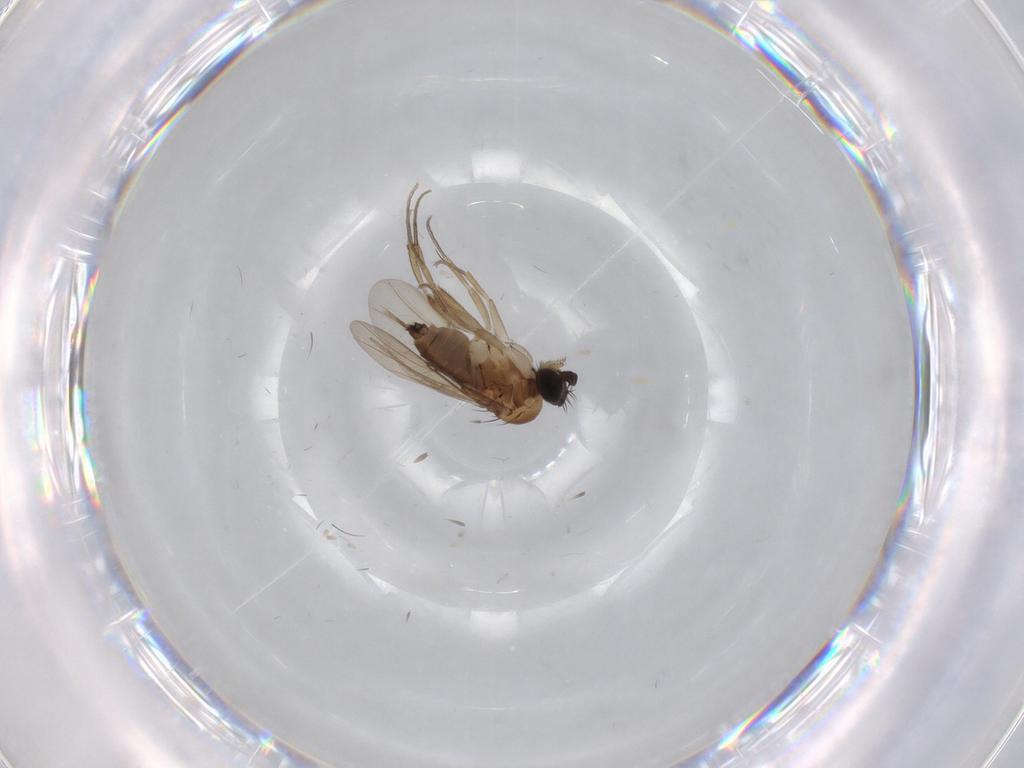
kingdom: Animalia
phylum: Arthropoda
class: Insecta
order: Diptera
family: Phoridae
